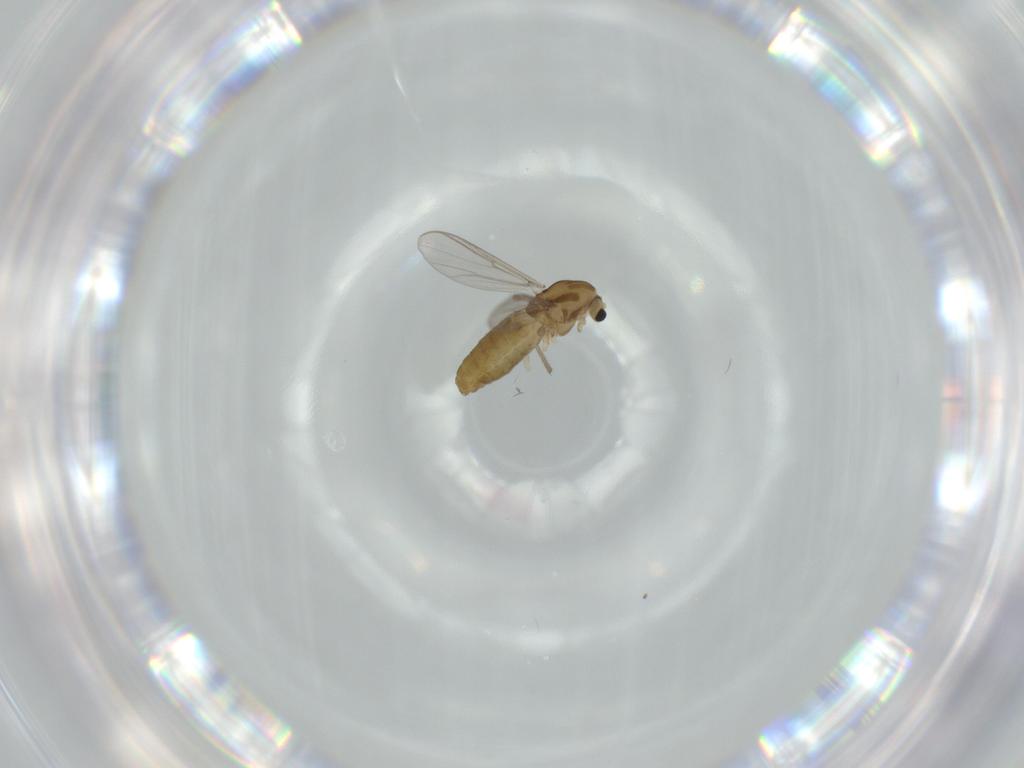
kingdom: Animalia
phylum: Arthropoda
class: Insecta
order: Diptera
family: Chironomidae
